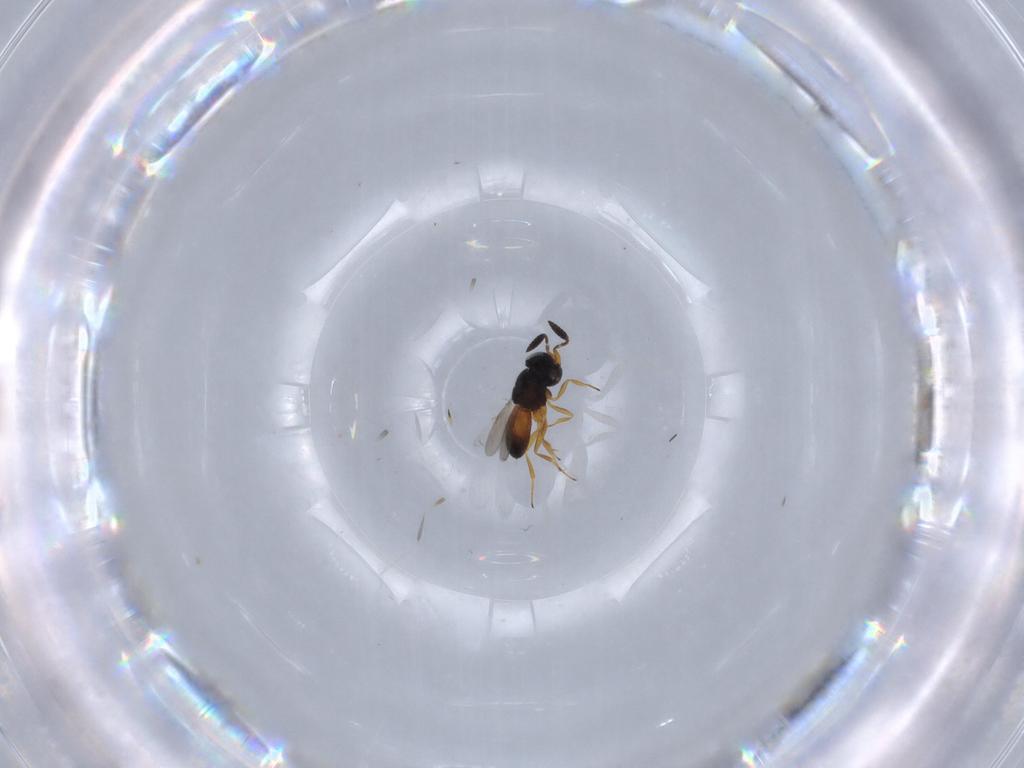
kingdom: Animalia
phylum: Arthropoda
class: Insecta
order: Hymenoptera
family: Scelionidae
